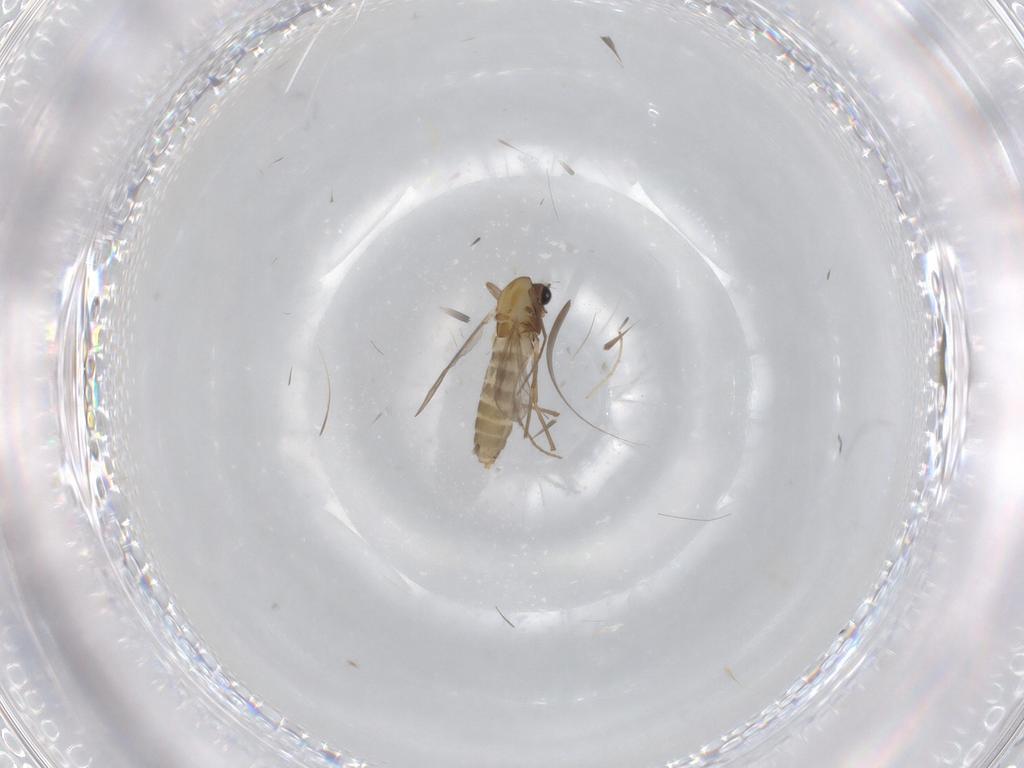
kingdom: Animalia
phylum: Arthropoda
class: Insecta
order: Diptera
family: Chironomidae
